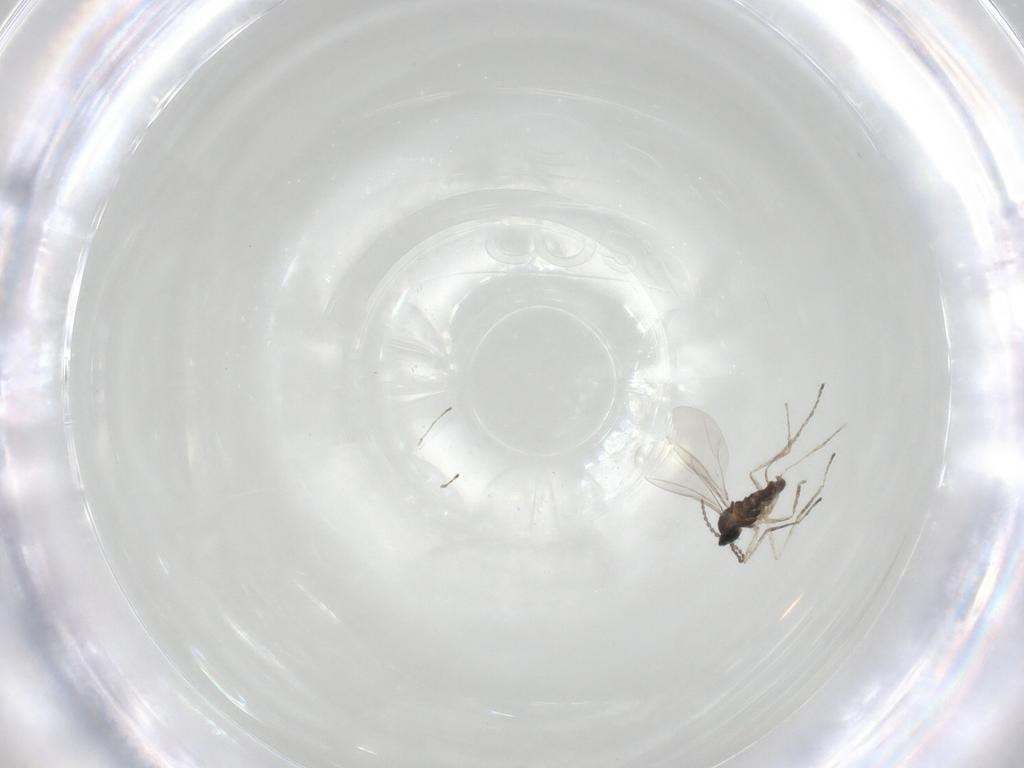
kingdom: Animalia
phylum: Arthropoda
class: Insecta
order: Diptera
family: Cecidomyiidae
